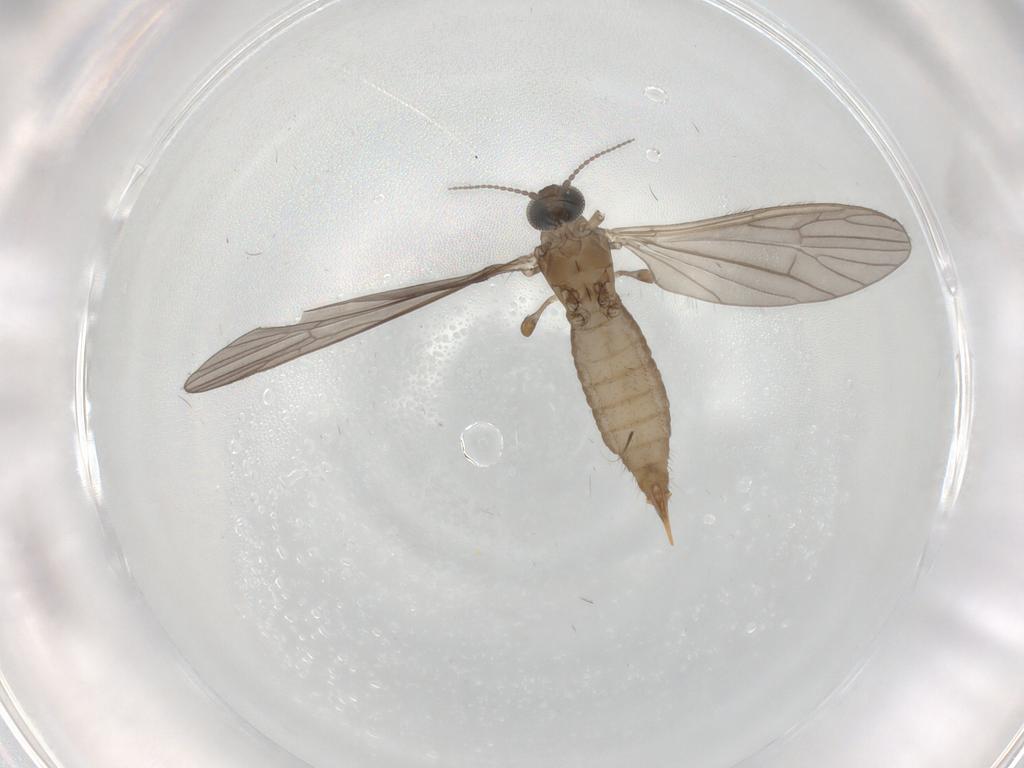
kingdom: Animalia
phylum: Arthropoda
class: Insecta
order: Diptera
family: Limoniidae
